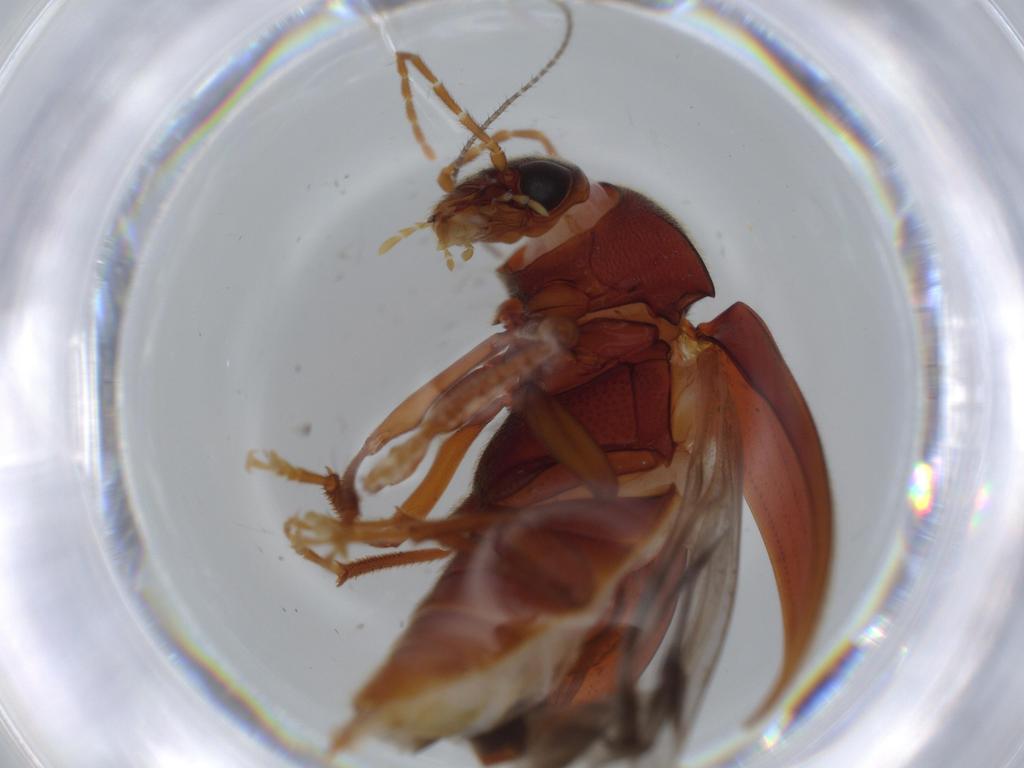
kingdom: Animalia
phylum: Arthropoda
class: Insecta
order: Coleoptera
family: Ptilodactylidae
